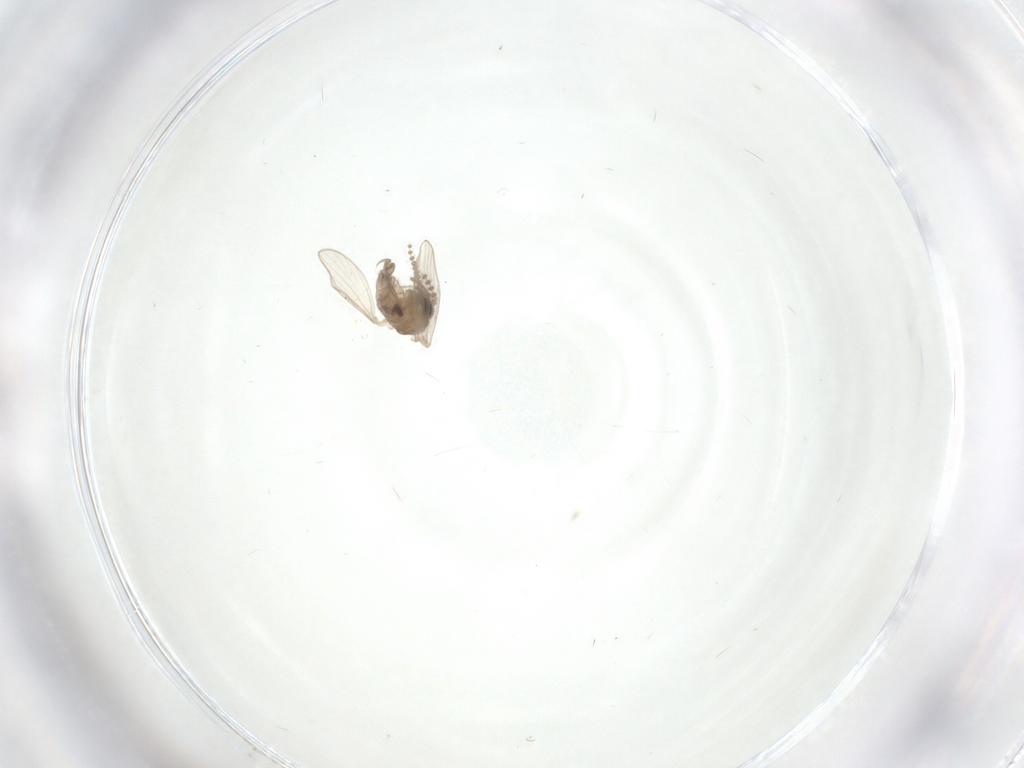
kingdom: Animalia
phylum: Arthropoda
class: Insecta
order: Diptera
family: Psychodidae
